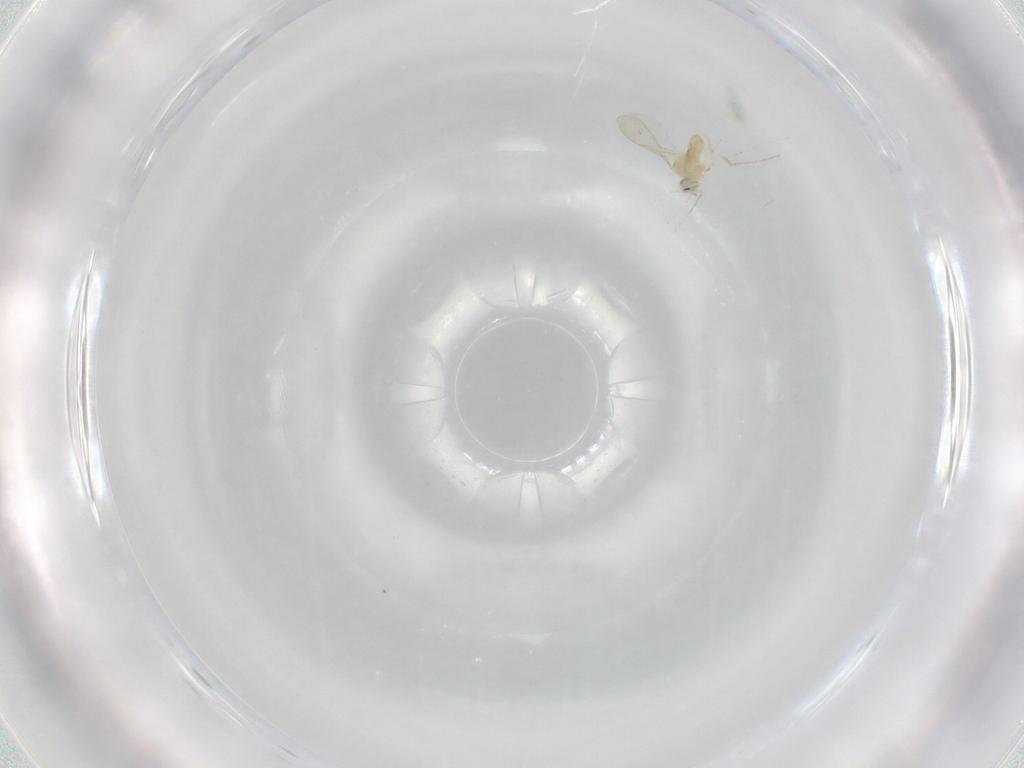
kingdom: Animalia
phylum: Arthropoda
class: Insecta
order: Diptera
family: Cecidomyiidae
